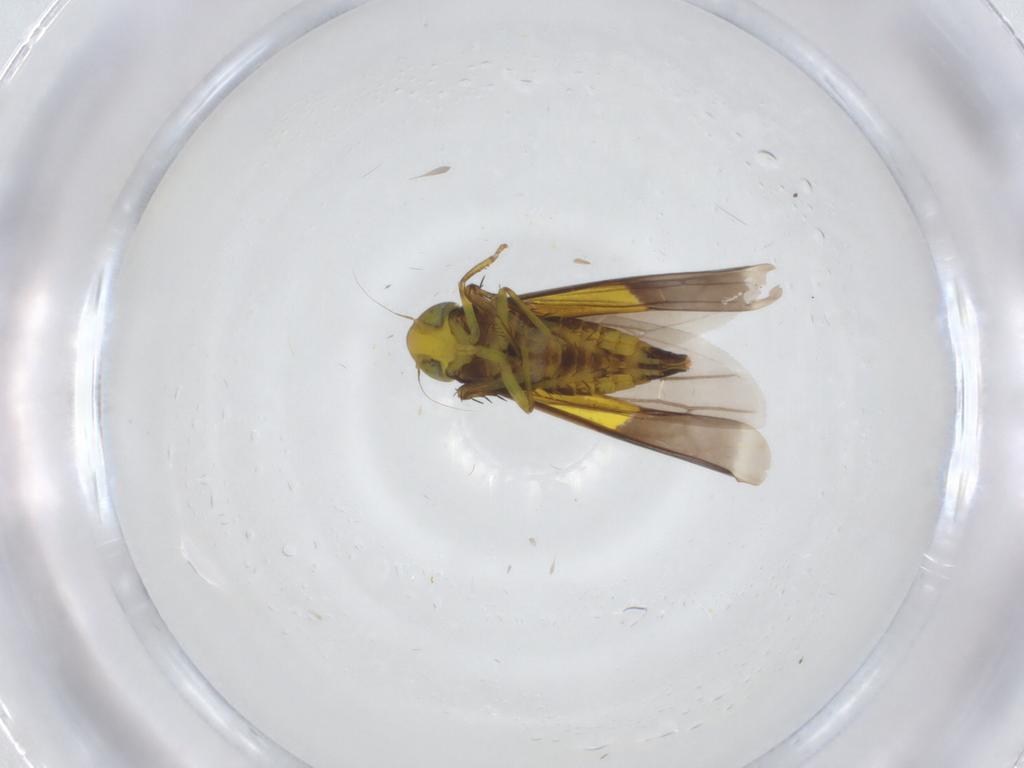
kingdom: Animalia
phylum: Arthropoda
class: Insecta
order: Hemiptera
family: Cicadellidae
